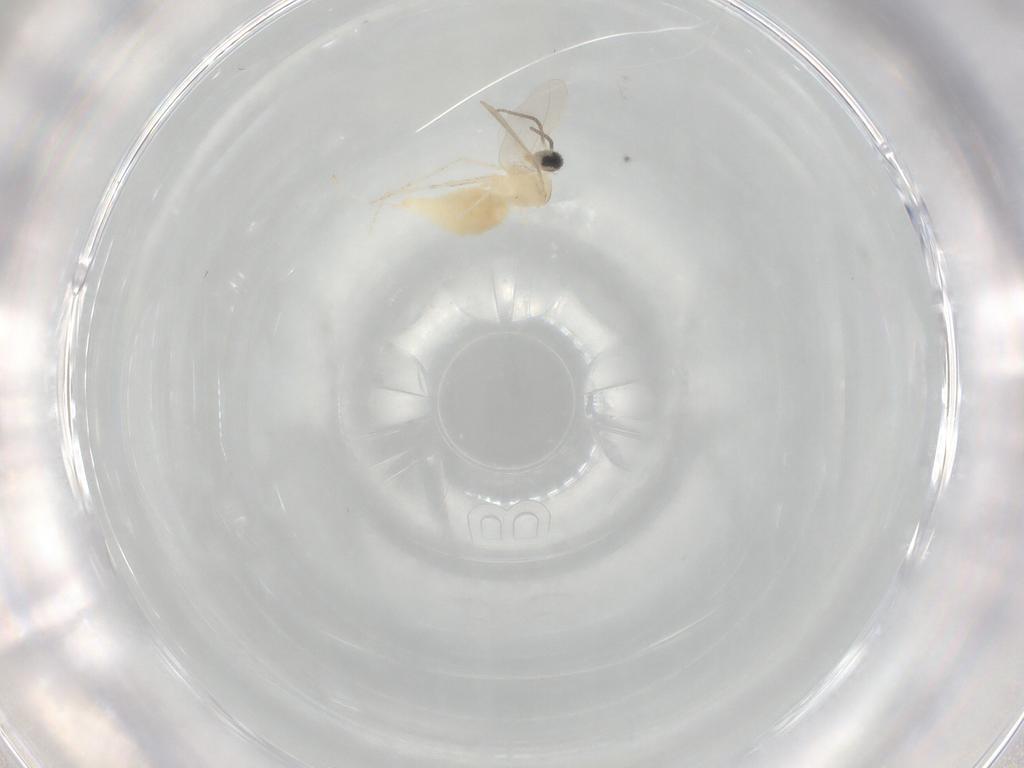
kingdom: Animalia
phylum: Arthropoda
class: Insecta
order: Diptera
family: Cecidomyiidae
